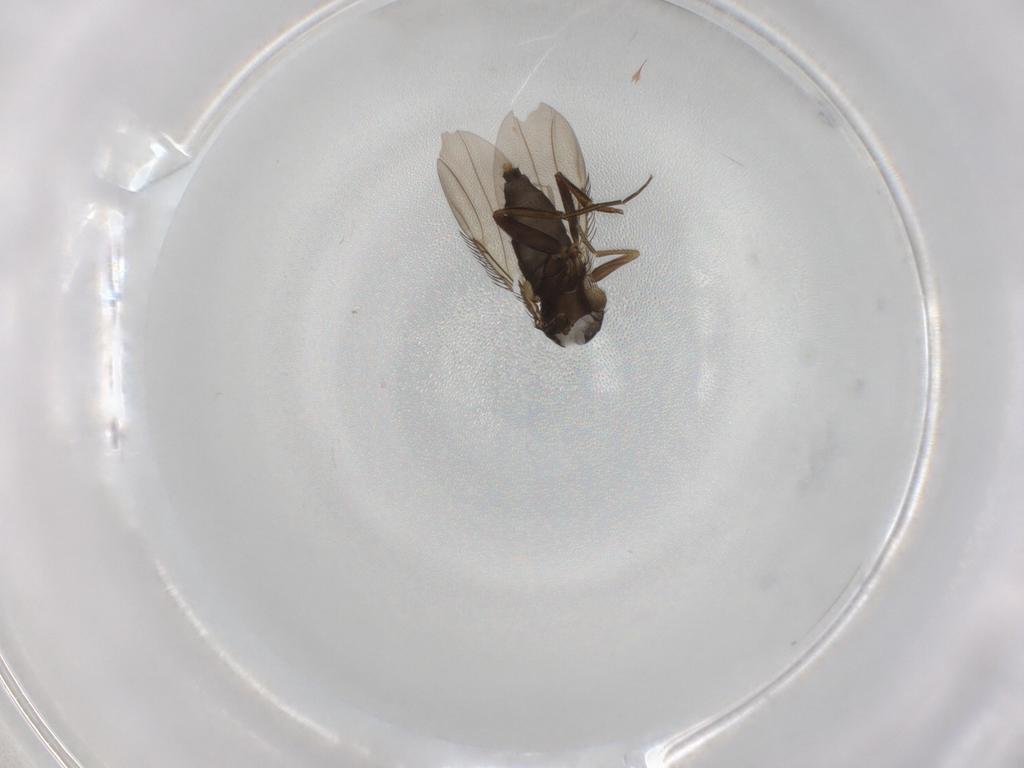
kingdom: Animalia
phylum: Arthropoda
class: Insecta
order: Diptera
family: Phoridae
